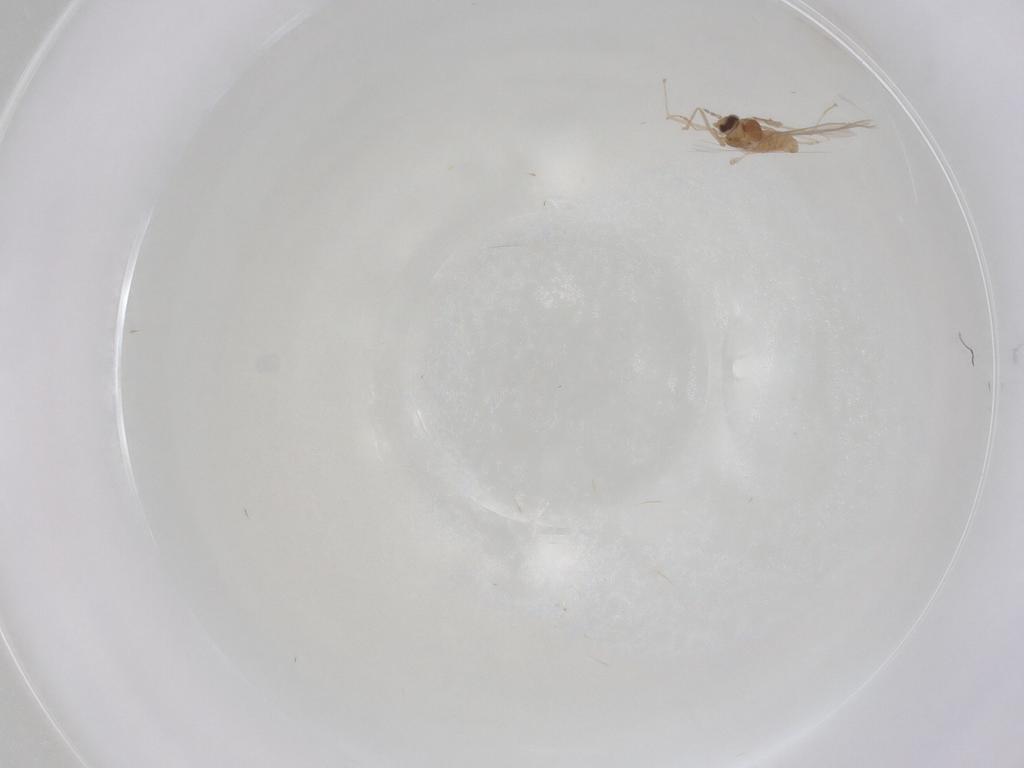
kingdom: Animalia
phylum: Arthropoda
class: Insecta
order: Diptera
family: Cecidomyiidae
